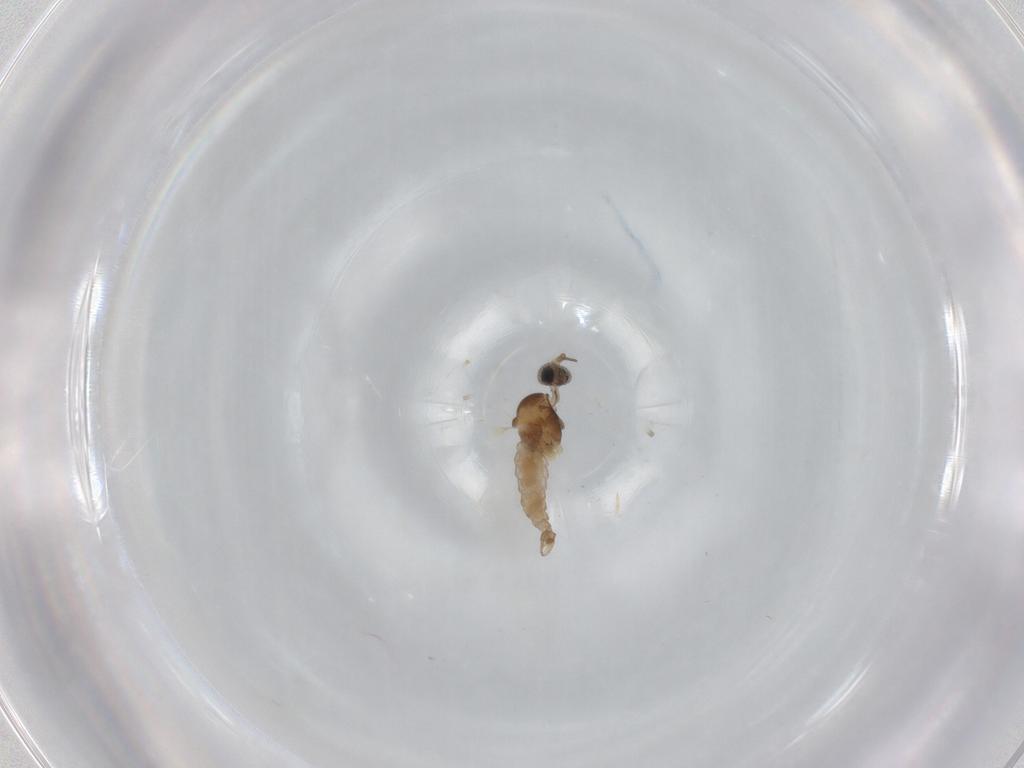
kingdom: Animalia
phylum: Arthropoda
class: Insecta
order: Diptera
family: Cecidomyiidae
